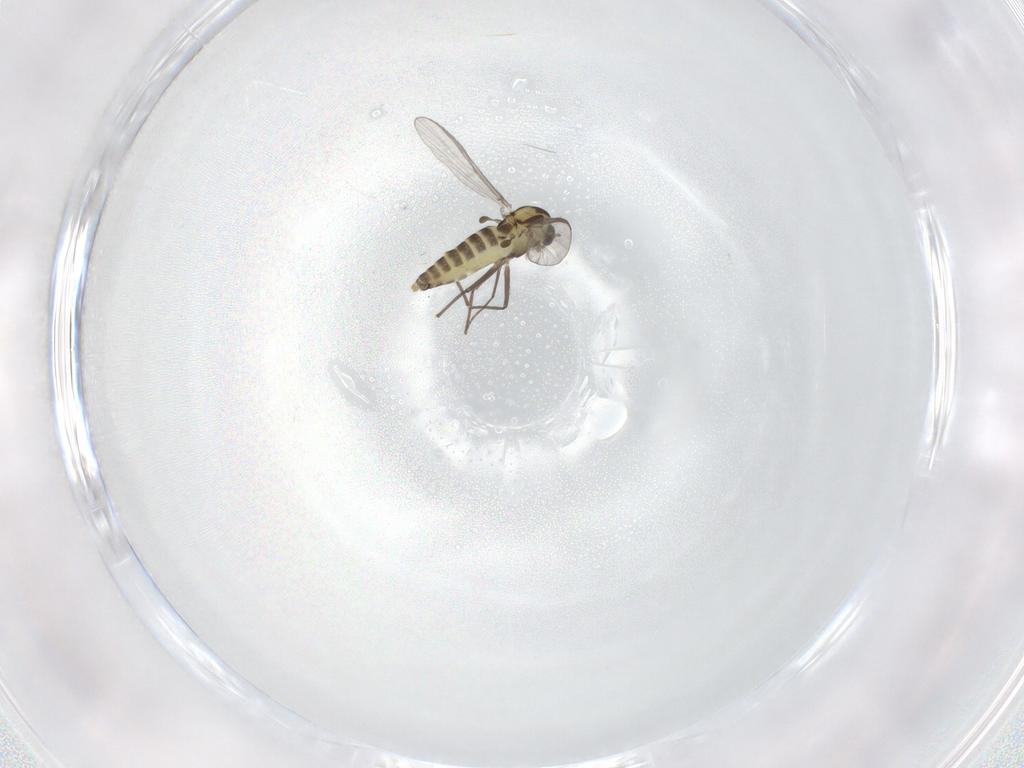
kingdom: Animalia
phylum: Arthropoda
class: Insecta
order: Diptera
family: Chironomidae
